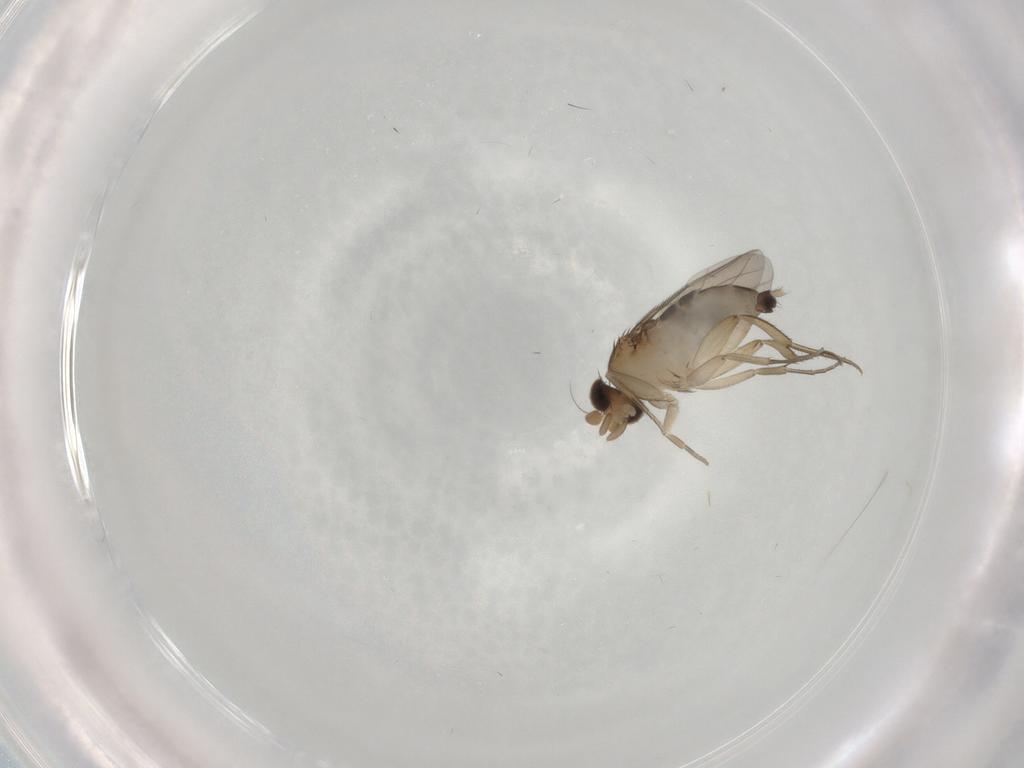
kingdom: Animalia
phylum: Arthropoda
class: Insecta
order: Diptera
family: Phoridae
